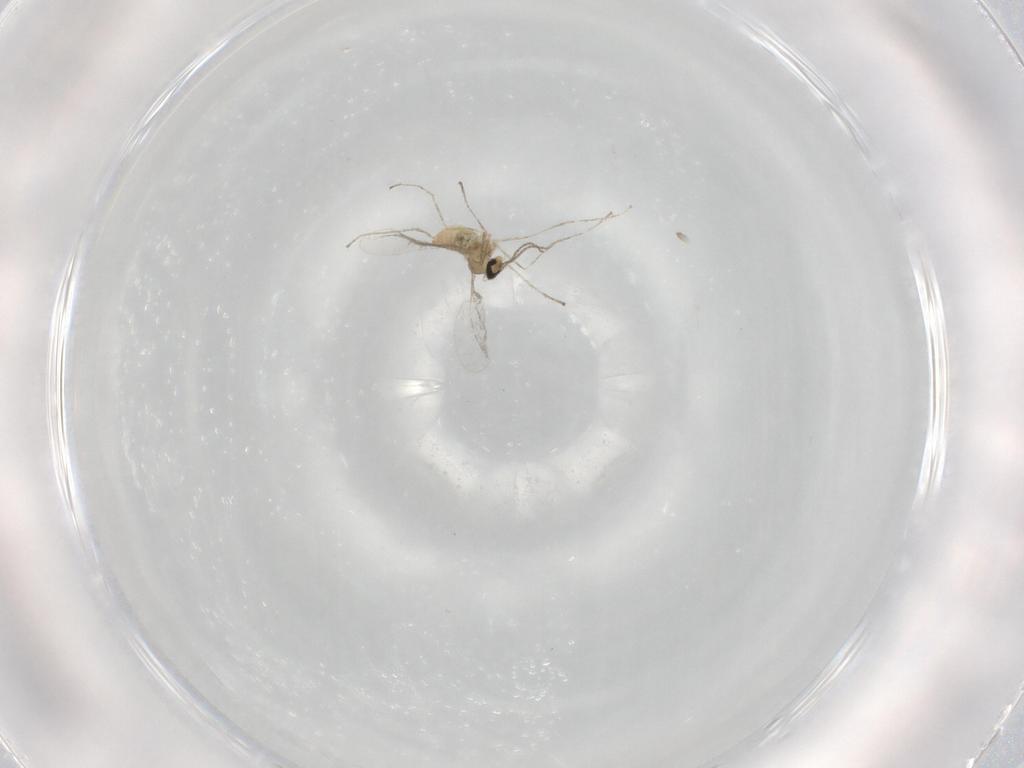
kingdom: Animalia
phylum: Arthropoda
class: Insecta
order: Diptera
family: Cecidomyiidae
